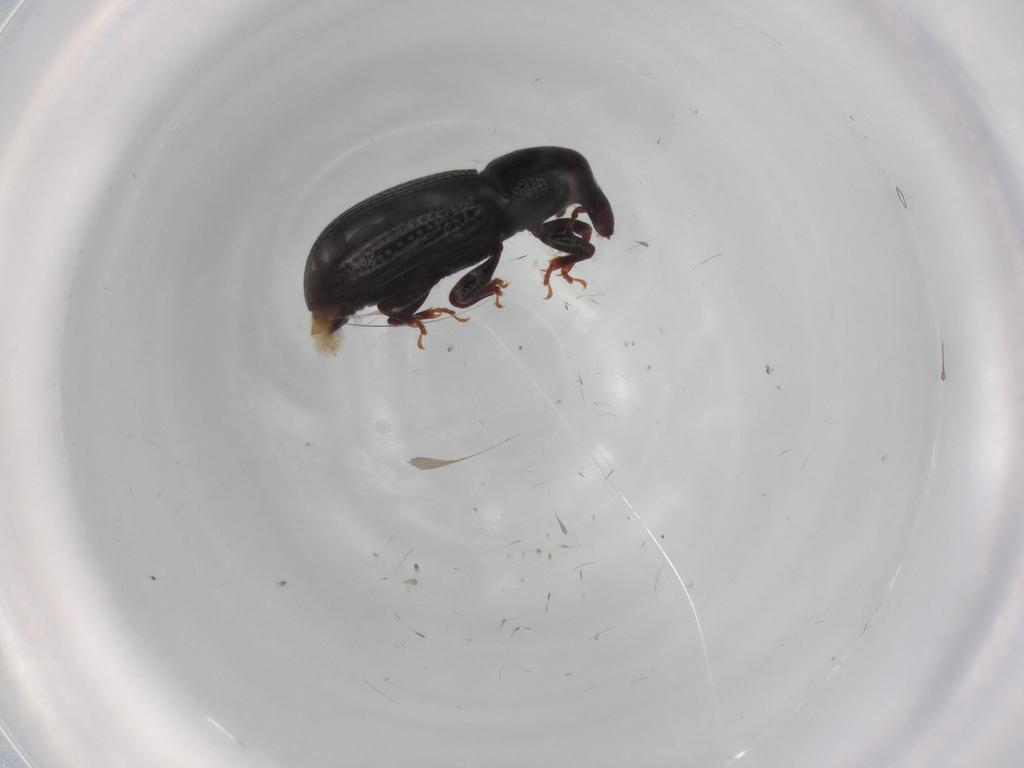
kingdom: Animalia
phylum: Arthropoda
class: Insecta
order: Coleoptera
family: Curculionidae
